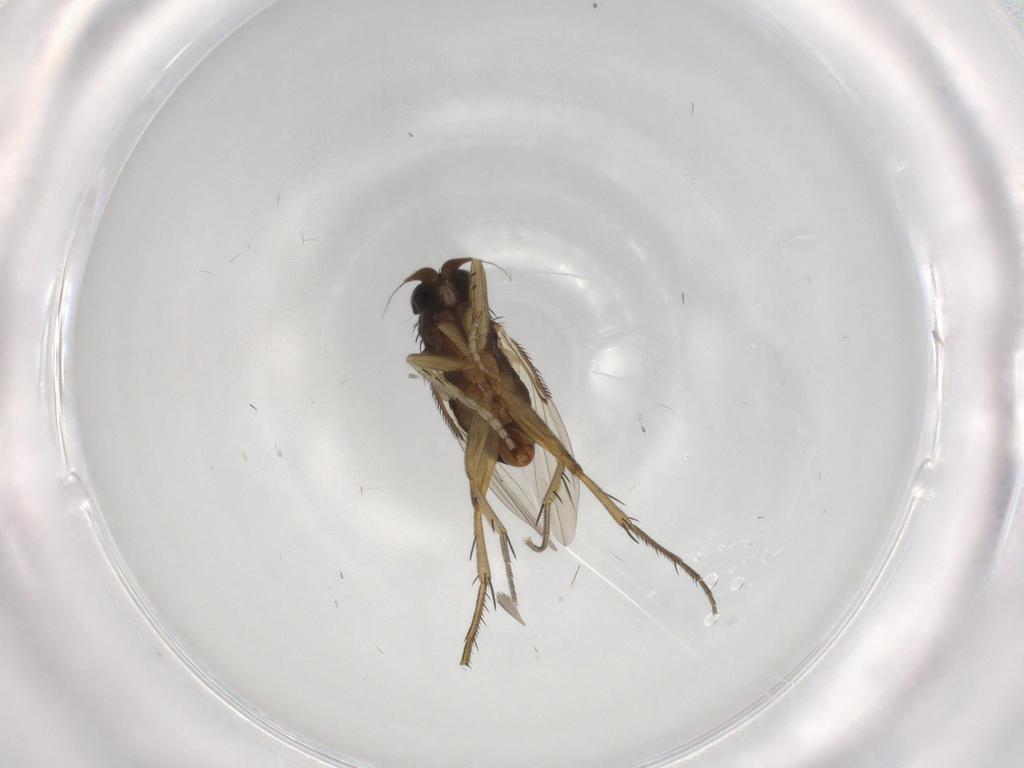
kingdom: Animalia
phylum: Arthropoda
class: Insecta
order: Diptera
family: Phoridae
